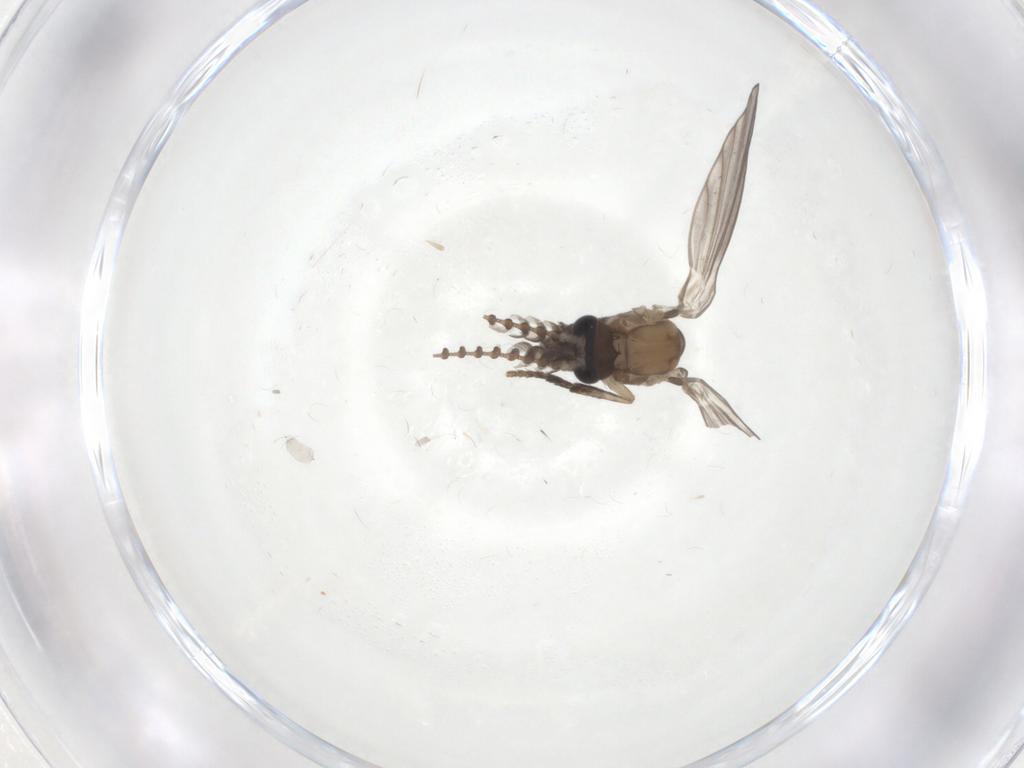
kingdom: Animalia
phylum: Arthropoda
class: Insecta
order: Diptera
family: Phoridae
